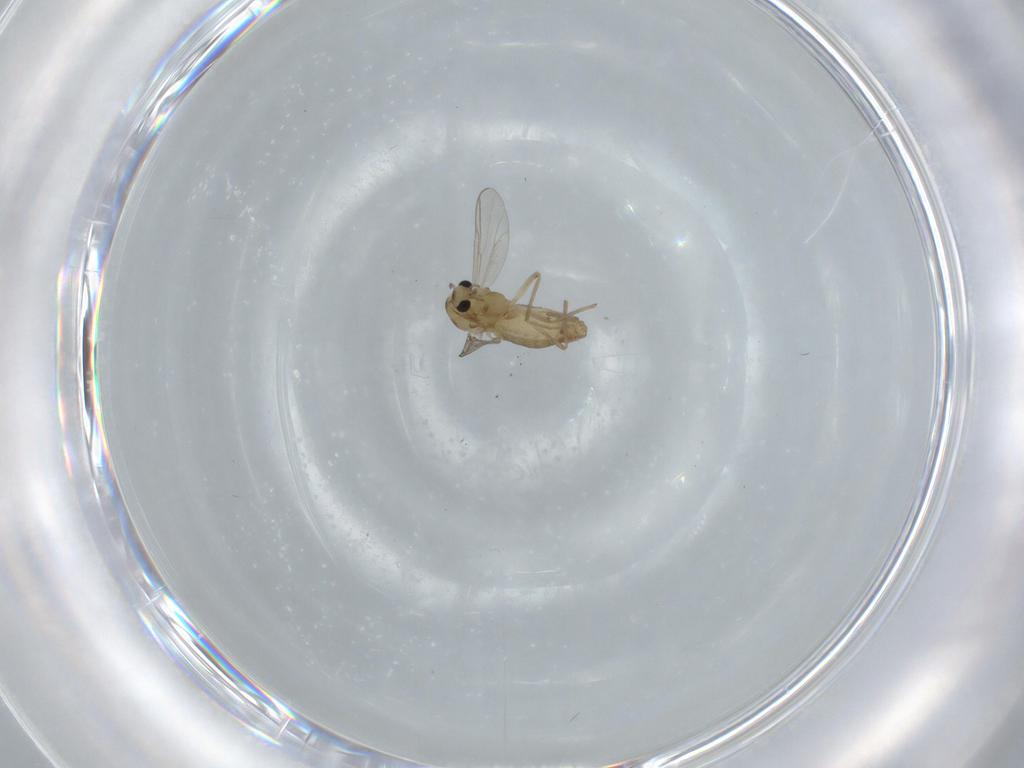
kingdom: Animalia
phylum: Arthropoda
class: Insecta
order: Diptera
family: Chironomidae
